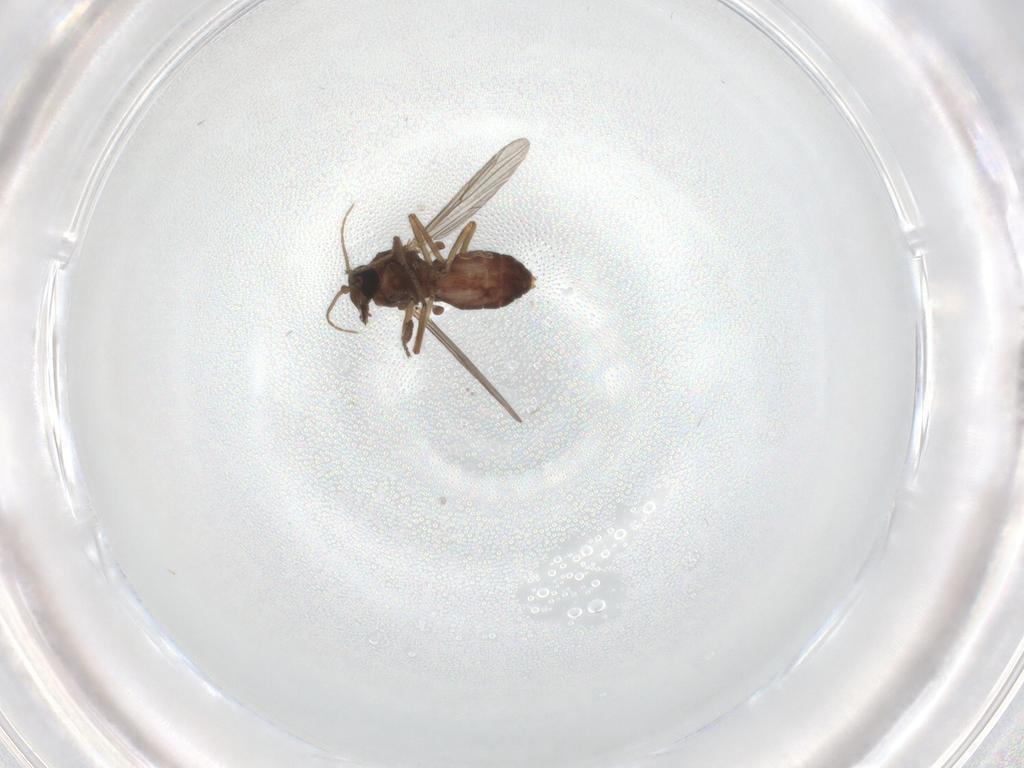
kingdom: Animalia
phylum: Arthropoda
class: Insecta
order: Diptera
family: Ceratopogonidae
